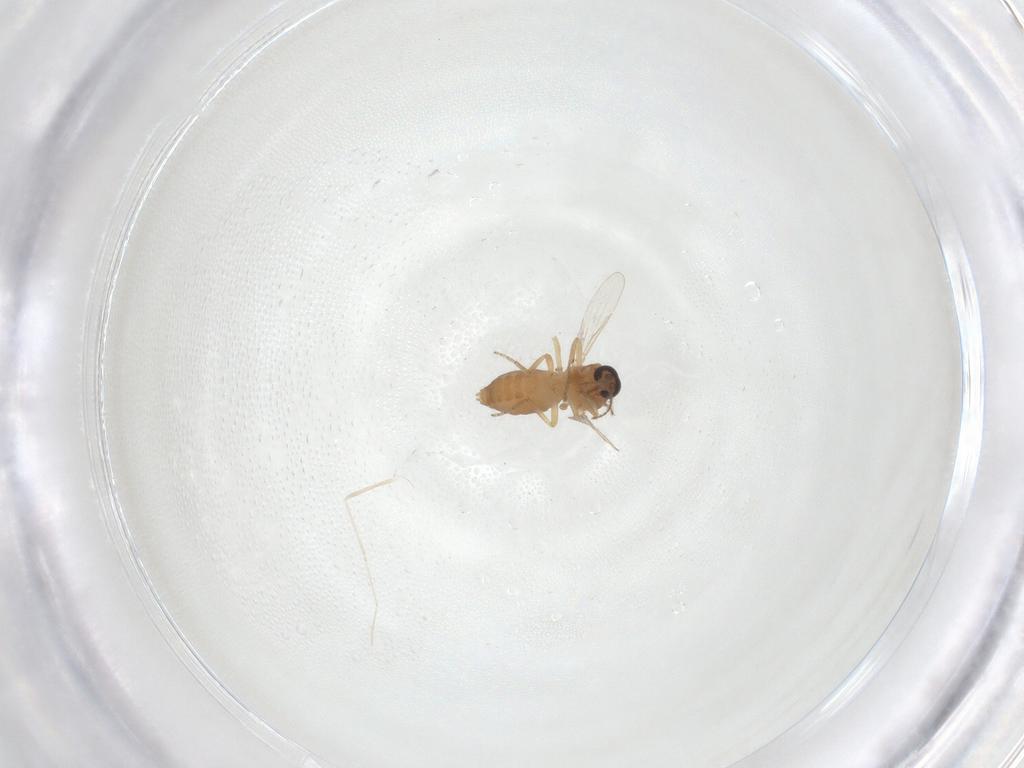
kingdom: Animalia
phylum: Arthropoda
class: Insecta
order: Diptera
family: Ceratopogonidae
